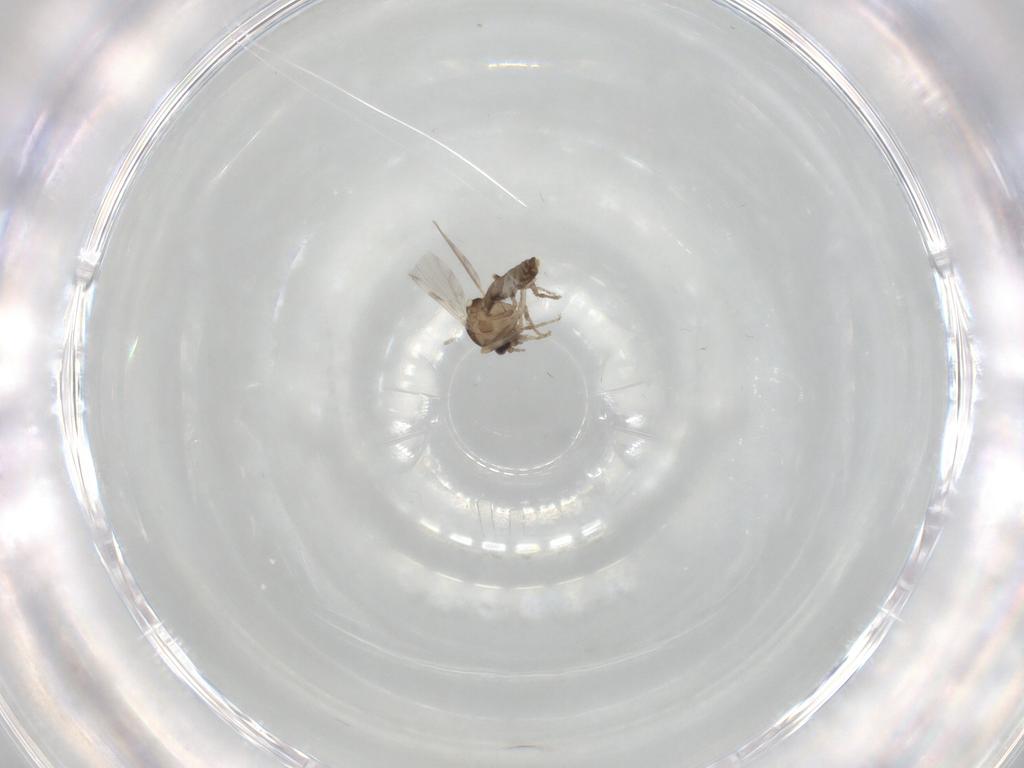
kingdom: Animalia
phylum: Arthropoda
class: Insecta
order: Diptera
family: Ceratopogonidae
